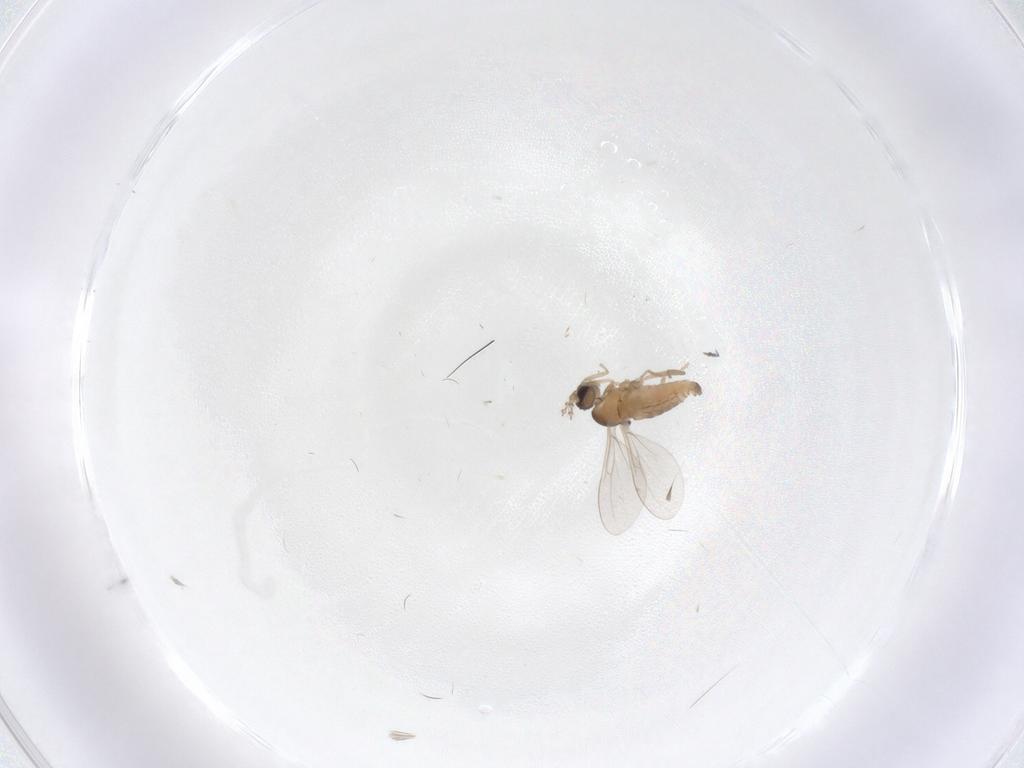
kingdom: Animalia
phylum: Arthropoda
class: Insecta
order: Diptera
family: Cecidomyiidae
